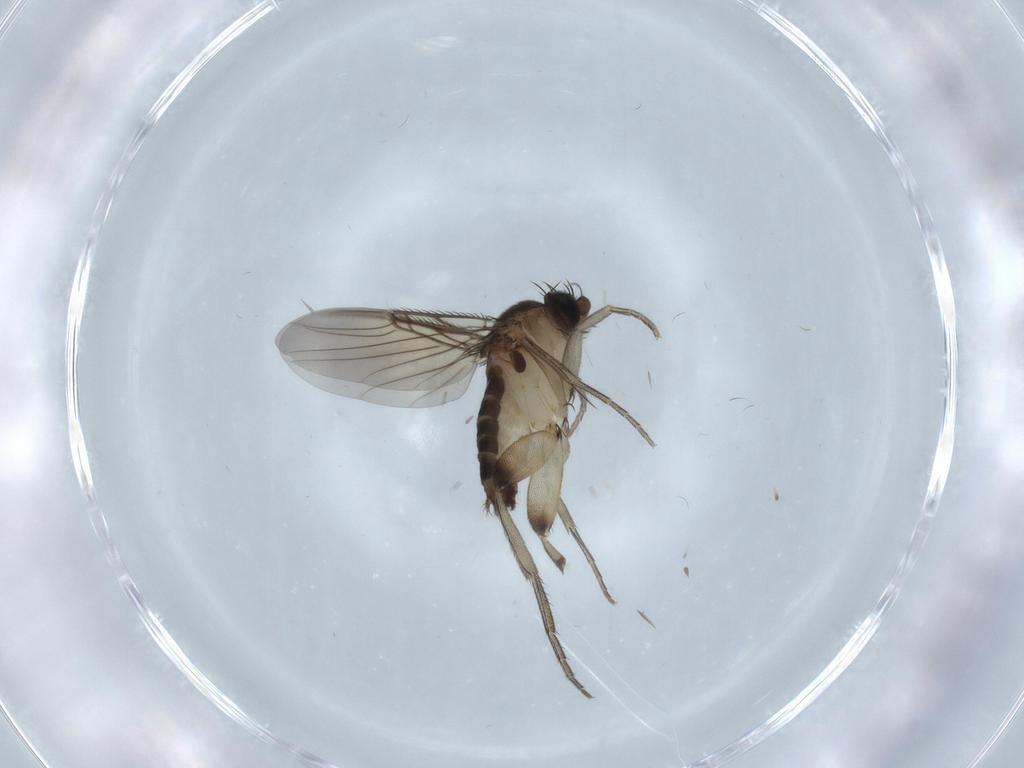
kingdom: Animalia
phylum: Arthropoda
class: Insecta
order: Diptera
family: Phoridae
